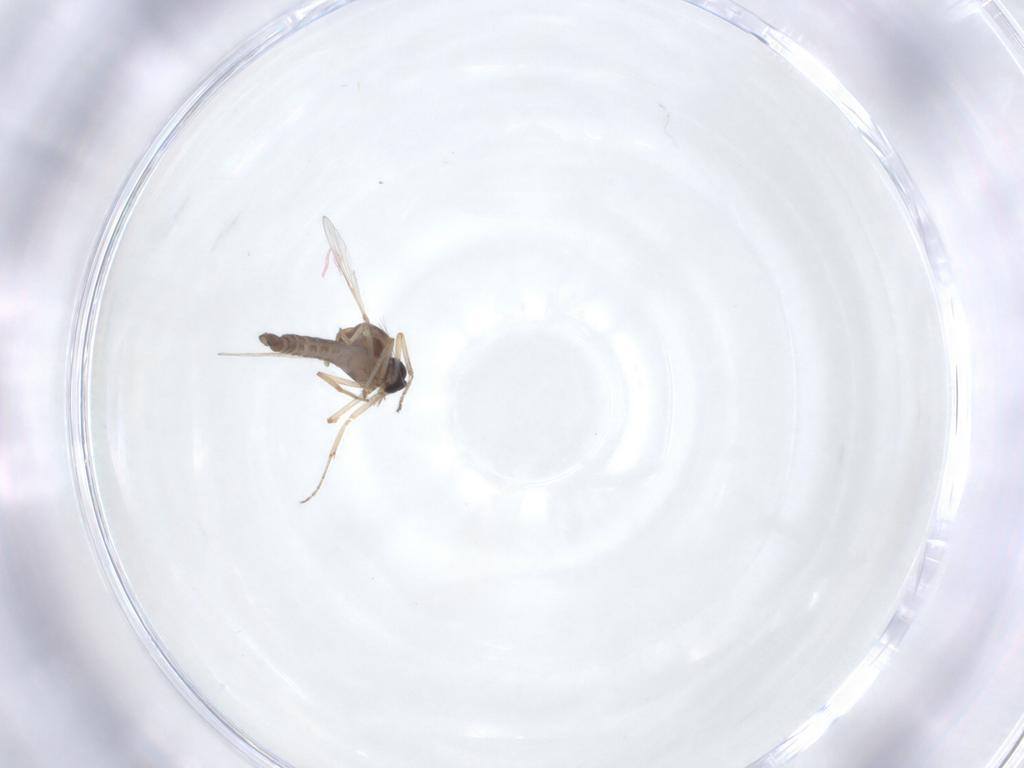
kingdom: Animalia
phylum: Arthropoda
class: Insecta
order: Diptera
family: Ceratopogonidae
